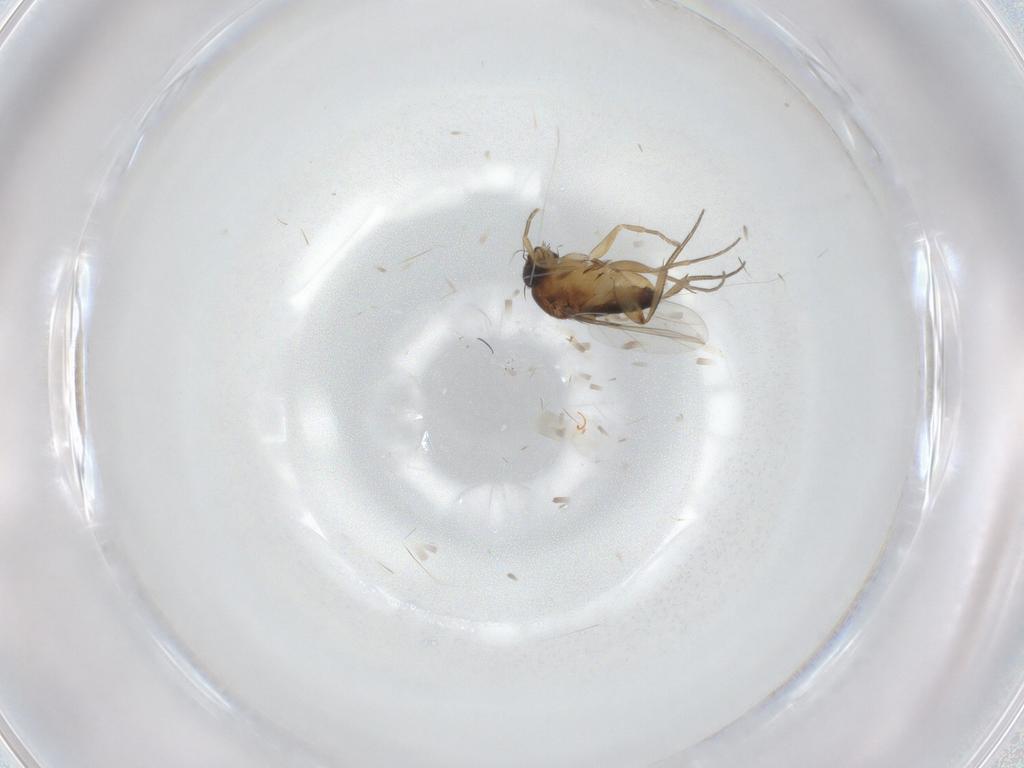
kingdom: Animalia
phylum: Arthropoda
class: Insecta
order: Diptera
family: Phoridae
